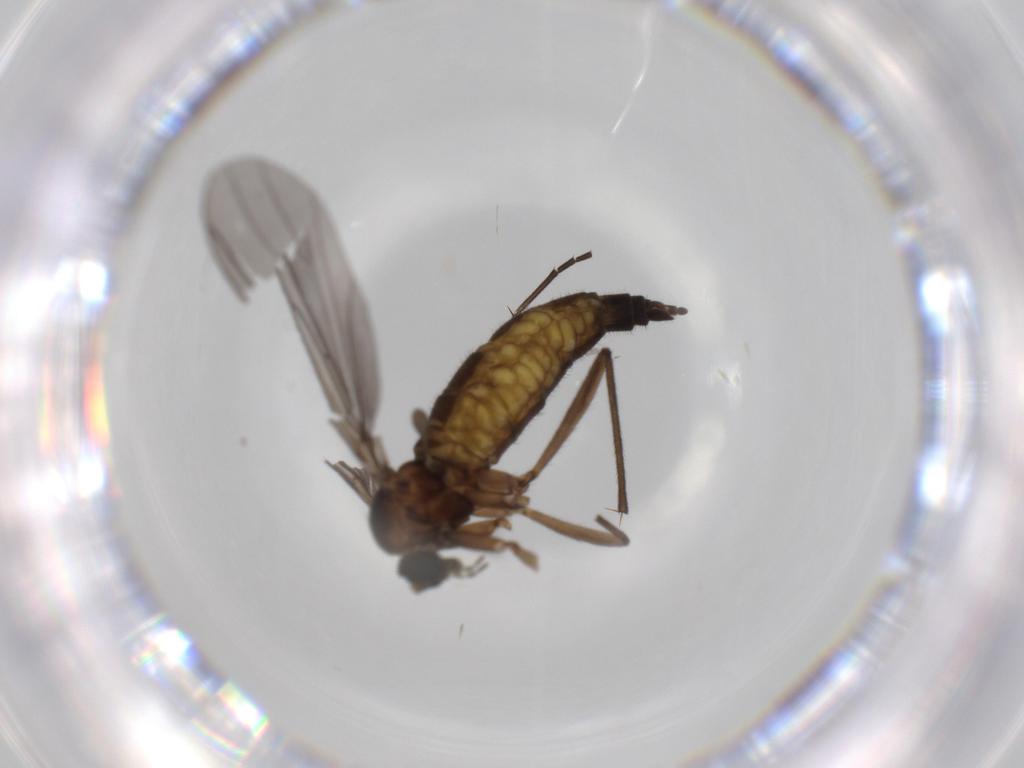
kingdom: Animalia
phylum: Arthropoda
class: Insecta
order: Diptera
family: Sciaridae
